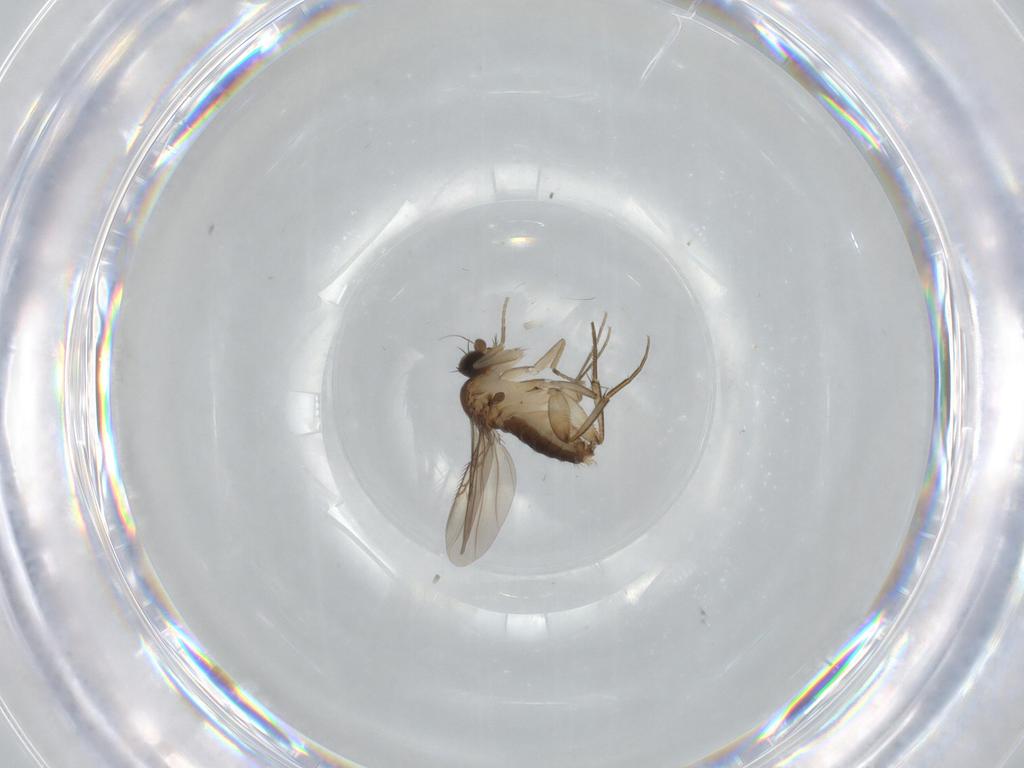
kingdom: Animalia
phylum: Arthropoda
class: Insecta
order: Diptera
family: Phoridae
